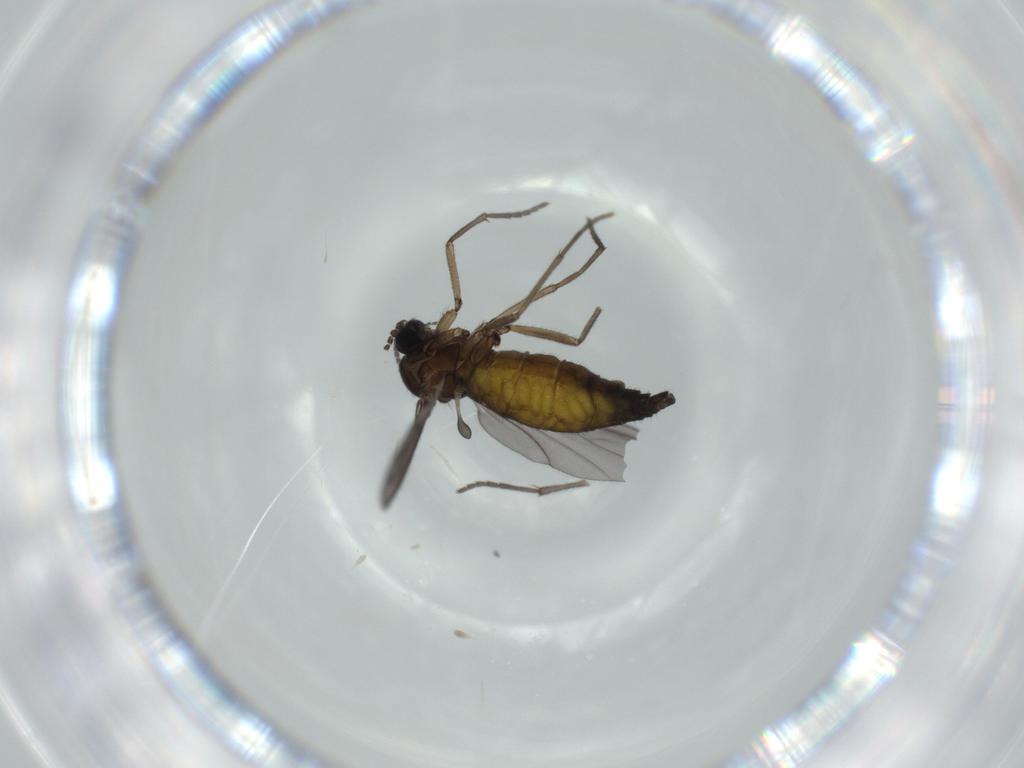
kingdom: Animalia
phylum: Arthropoda
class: Insecta
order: Diptera
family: Sciaridae
